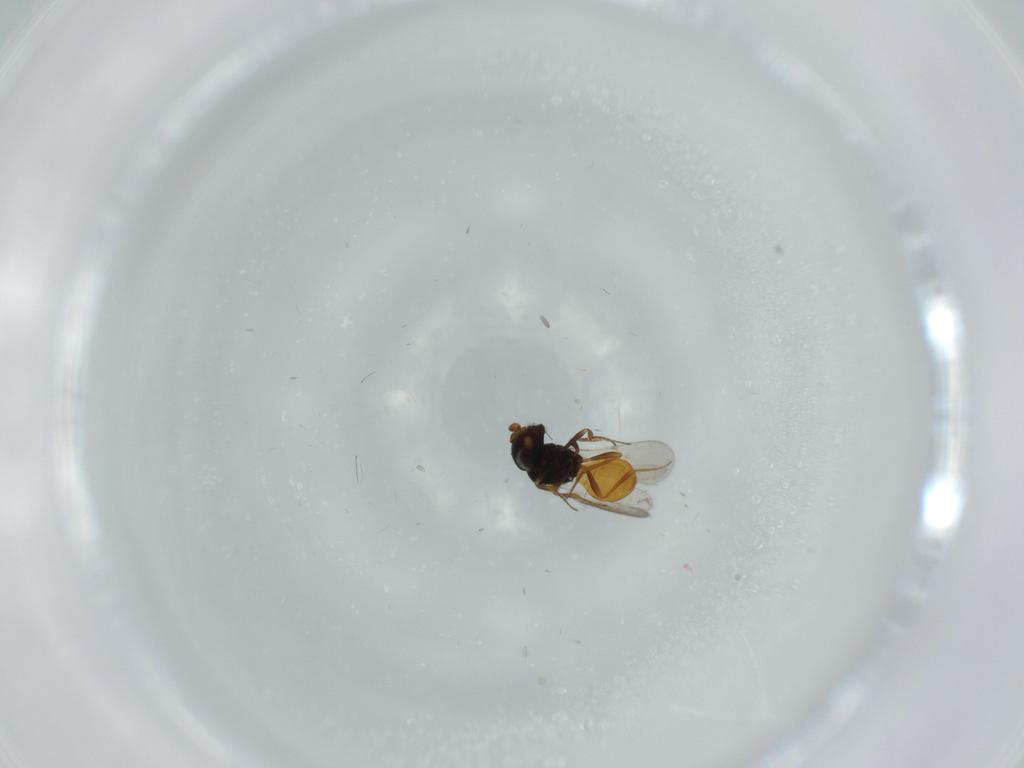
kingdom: Animalia
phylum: Arthropoda
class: Insecta
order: Hymenoptera
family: Scelionidae
